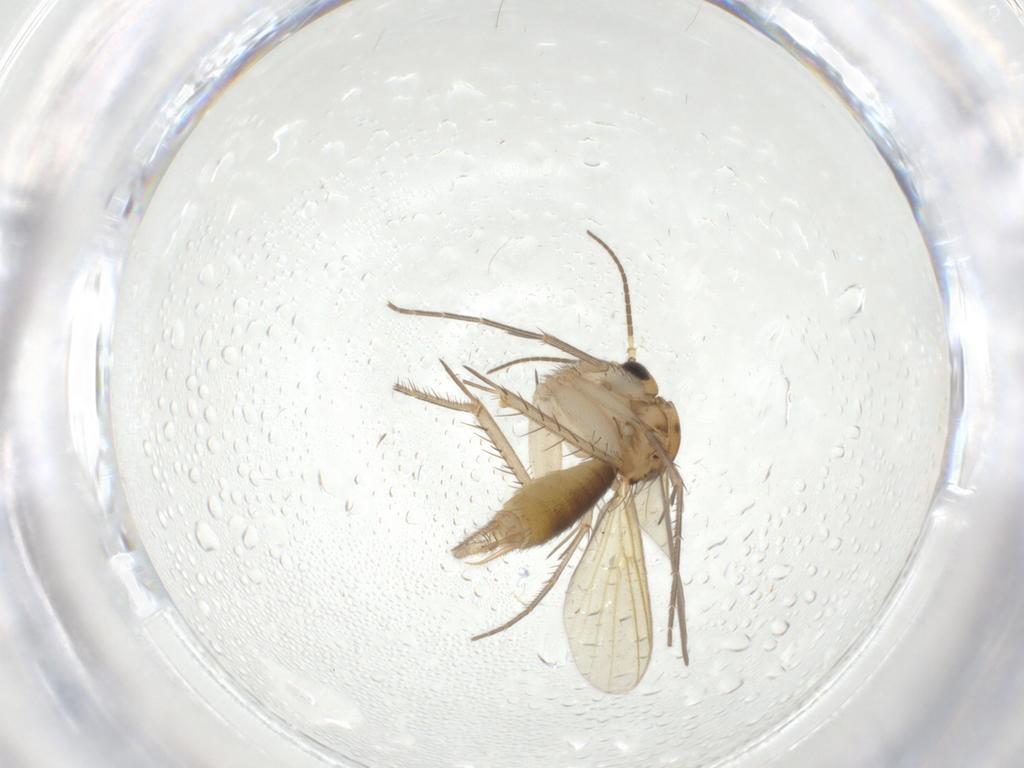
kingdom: Animalia
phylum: Arthropoda
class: Insecta
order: Diptera
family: Mycetophilidae
